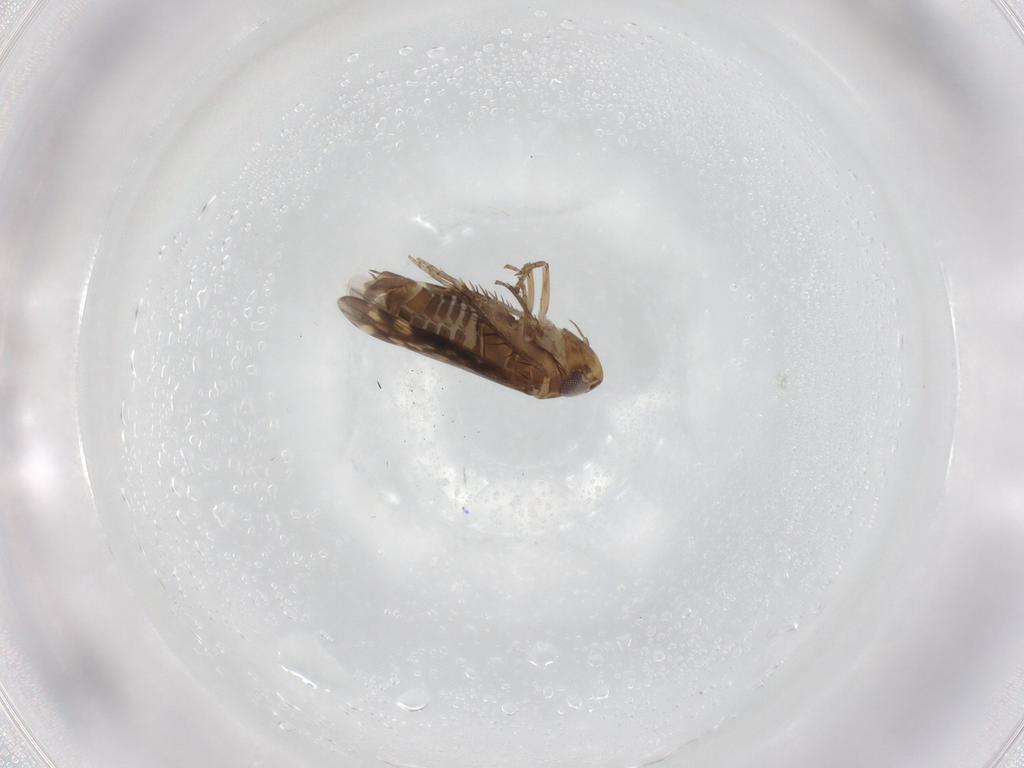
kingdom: Animalia
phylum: Arthropoda
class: Insecta
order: Hemiptera
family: Cicadellidae
